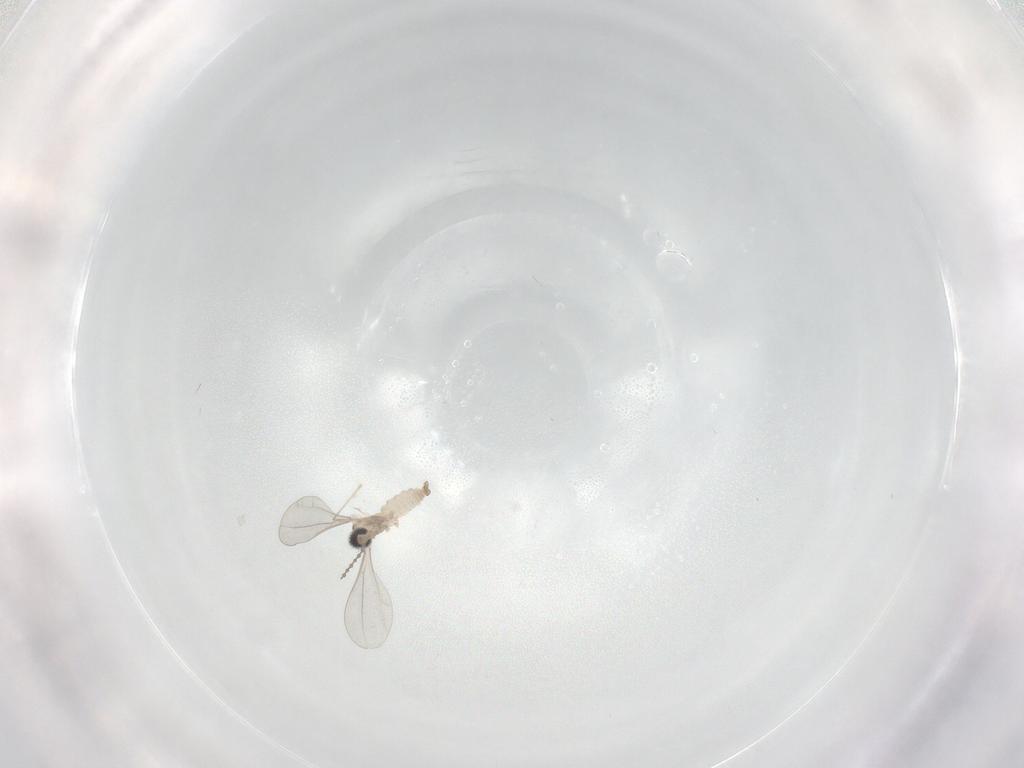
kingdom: Animalia
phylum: Arthropoda
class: Insecta
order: Diptera
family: Cecidomyiidae
